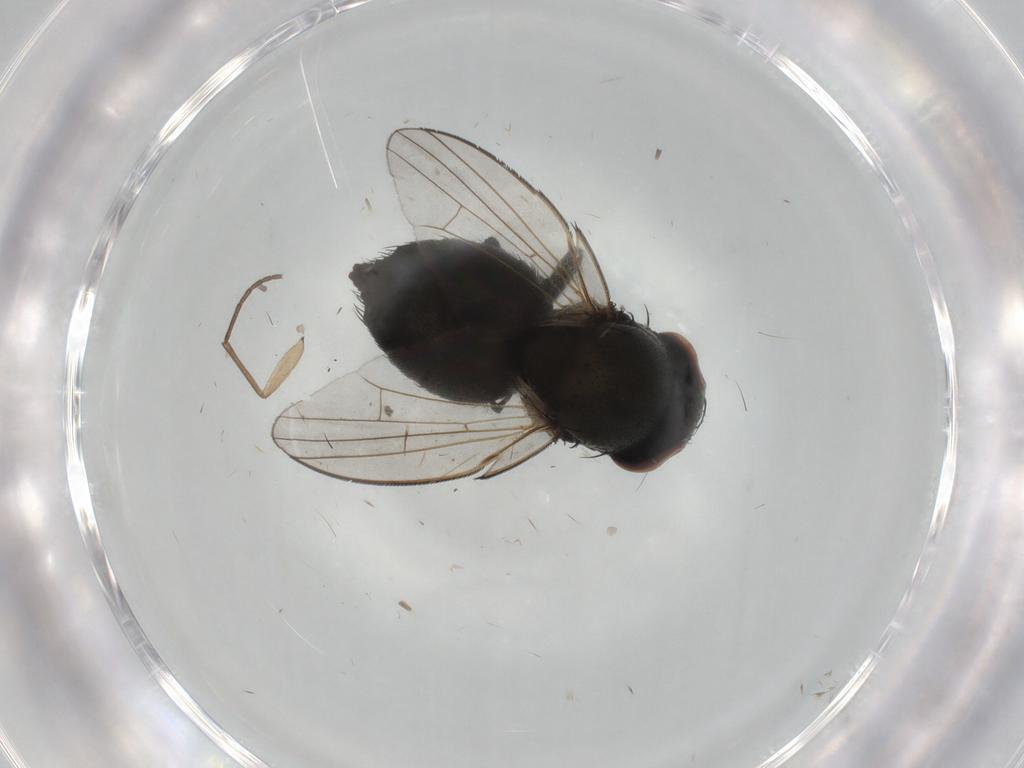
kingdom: Animalia
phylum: Arthropoda
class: Insecta
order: Diptera
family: Milichiidae
